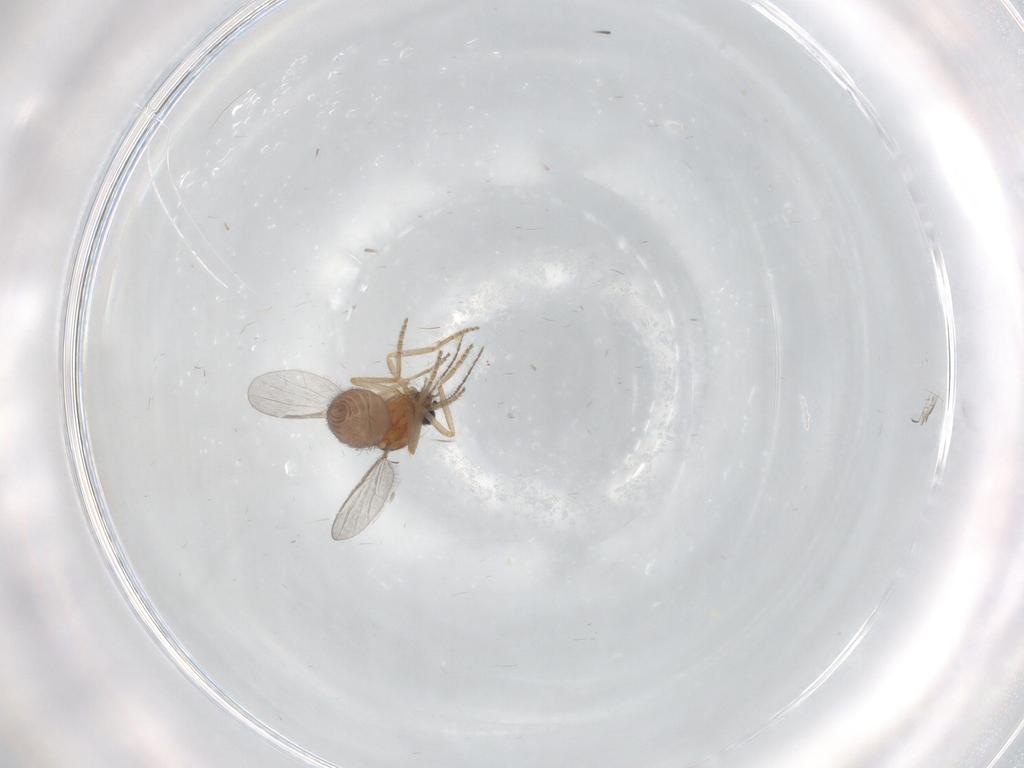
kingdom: Animalia
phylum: Arthropoda
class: Insecta
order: Diptera
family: Ceratopogonidae
